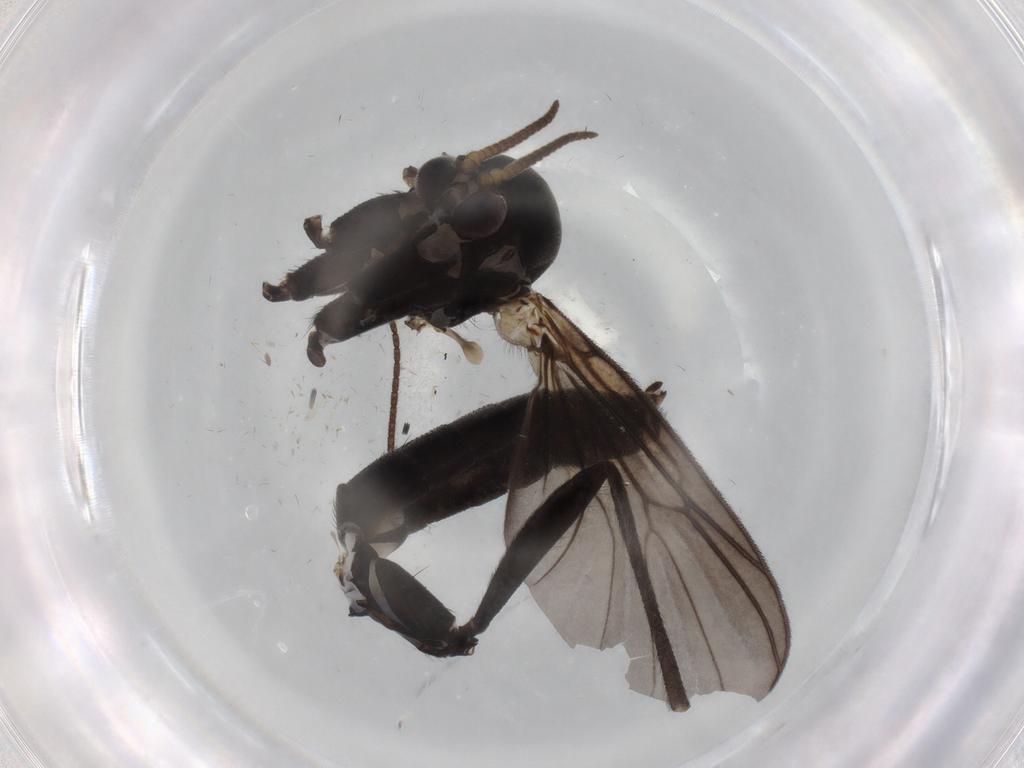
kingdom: Animalia
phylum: Arthropoda
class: Insecta
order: Diptera
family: Mycetophilidae
